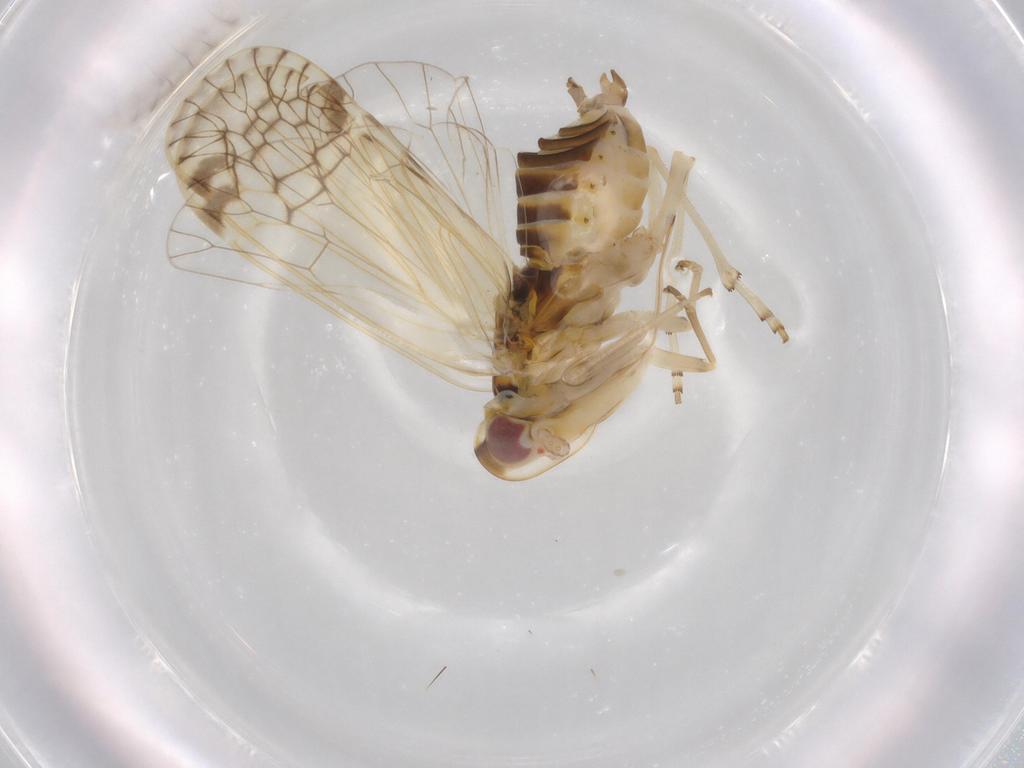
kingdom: Animalia
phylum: Arthropoda
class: Insecta
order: Hemiptera
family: Kinnaridae
